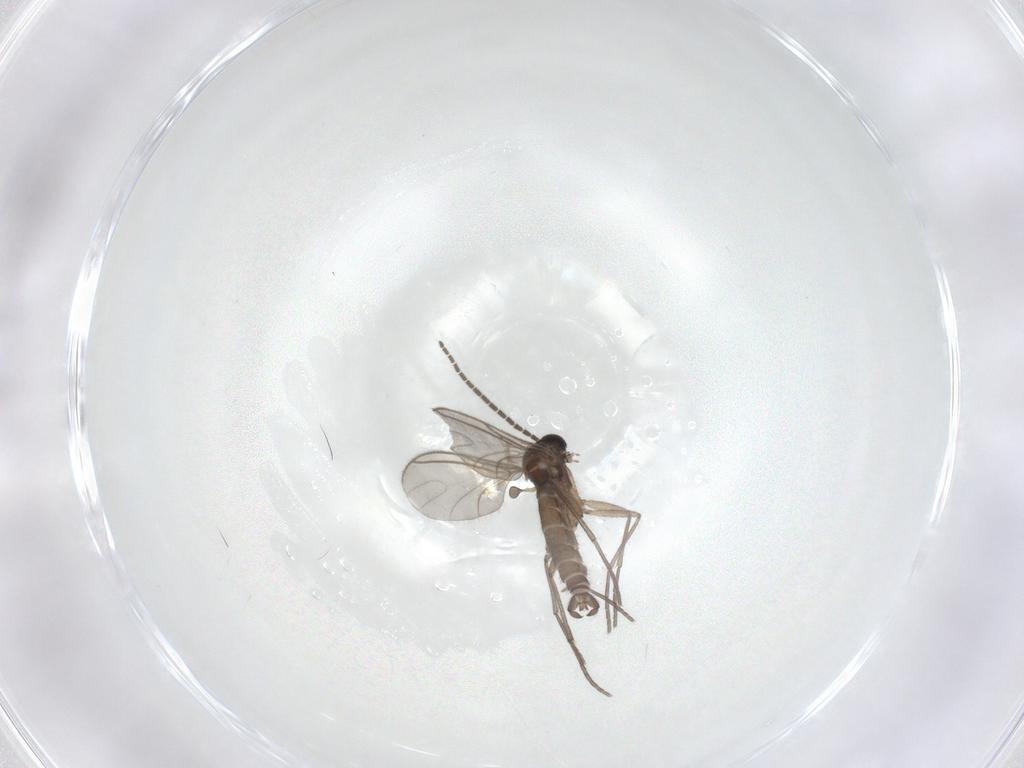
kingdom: Animalia
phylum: Arthropoda
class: Insecta
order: Diptera
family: Sciaridae
